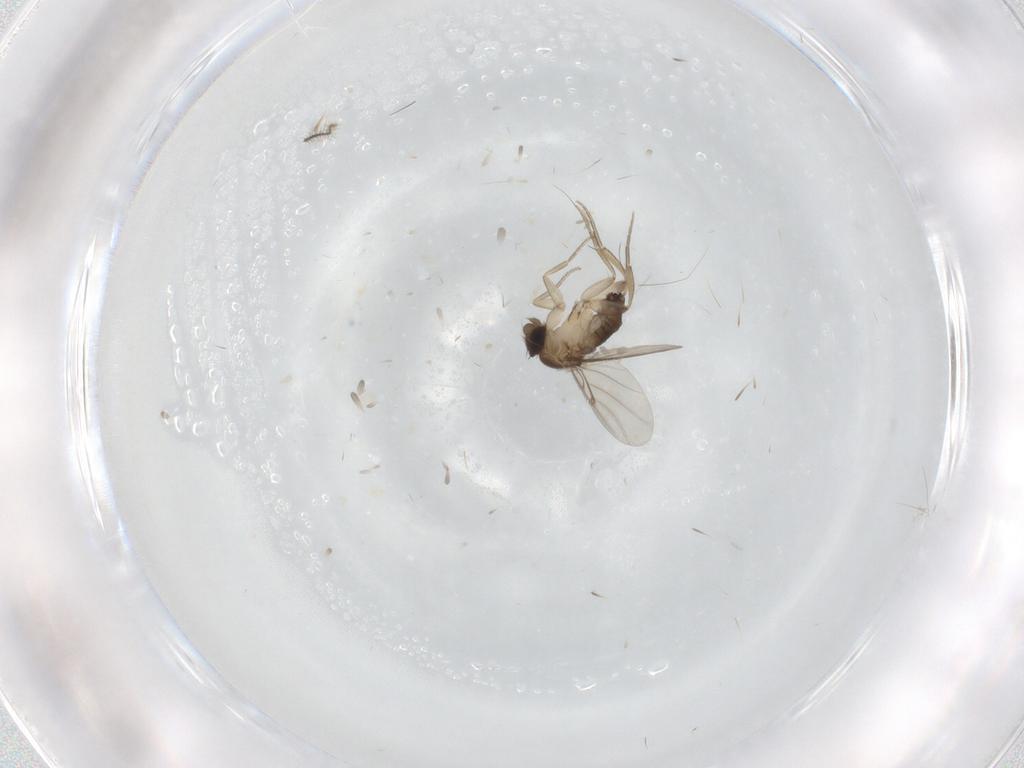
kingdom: Animalia
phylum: Arthropoda
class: Insecta
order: Diptera
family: Phoridae
